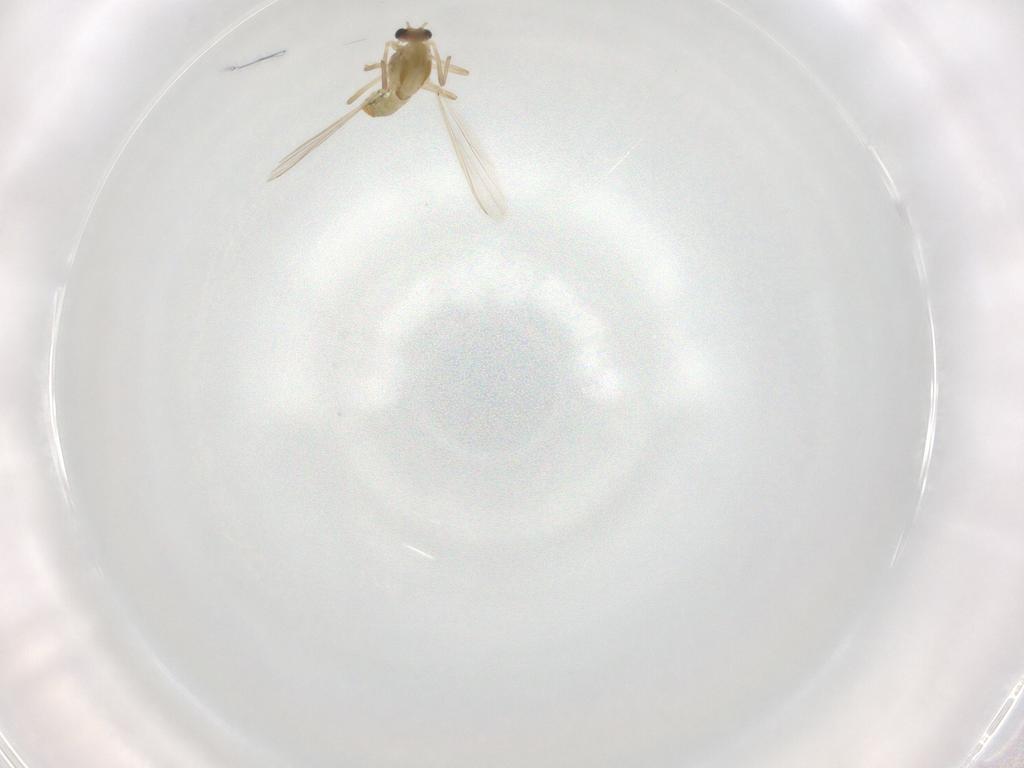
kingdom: Animalia
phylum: Arthropoda
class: Insecta
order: Diptera
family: Chironomidae
